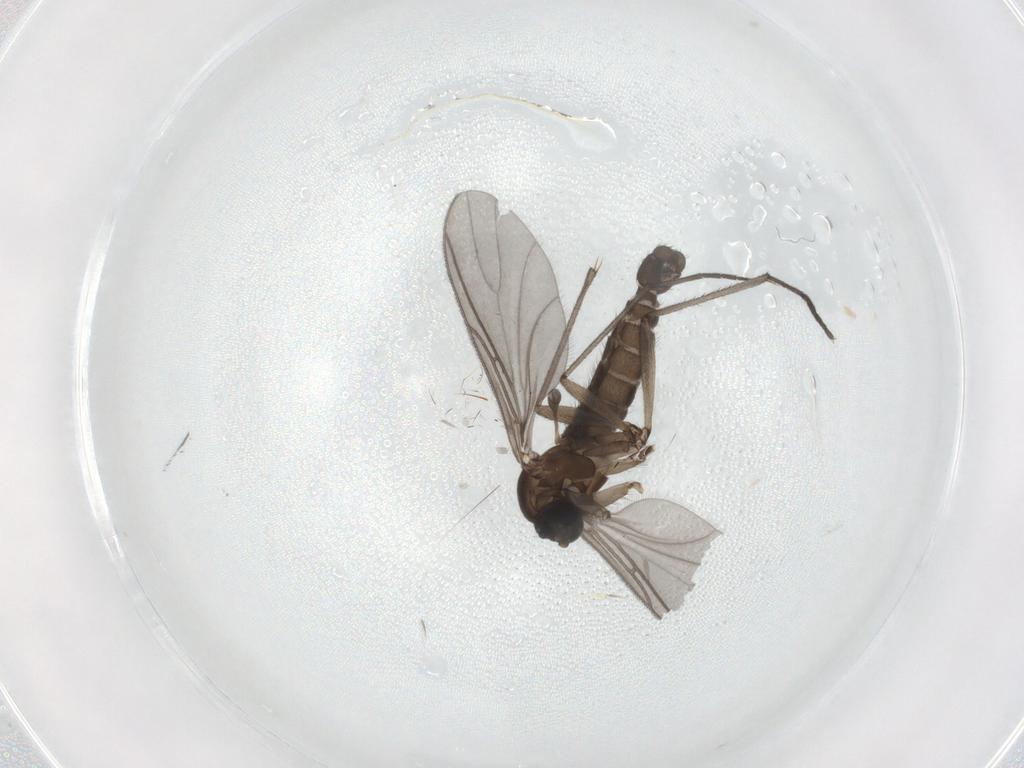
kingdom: Animalia
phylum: Arthropoda
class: Insecta
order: Diptera
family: Sciaridae
